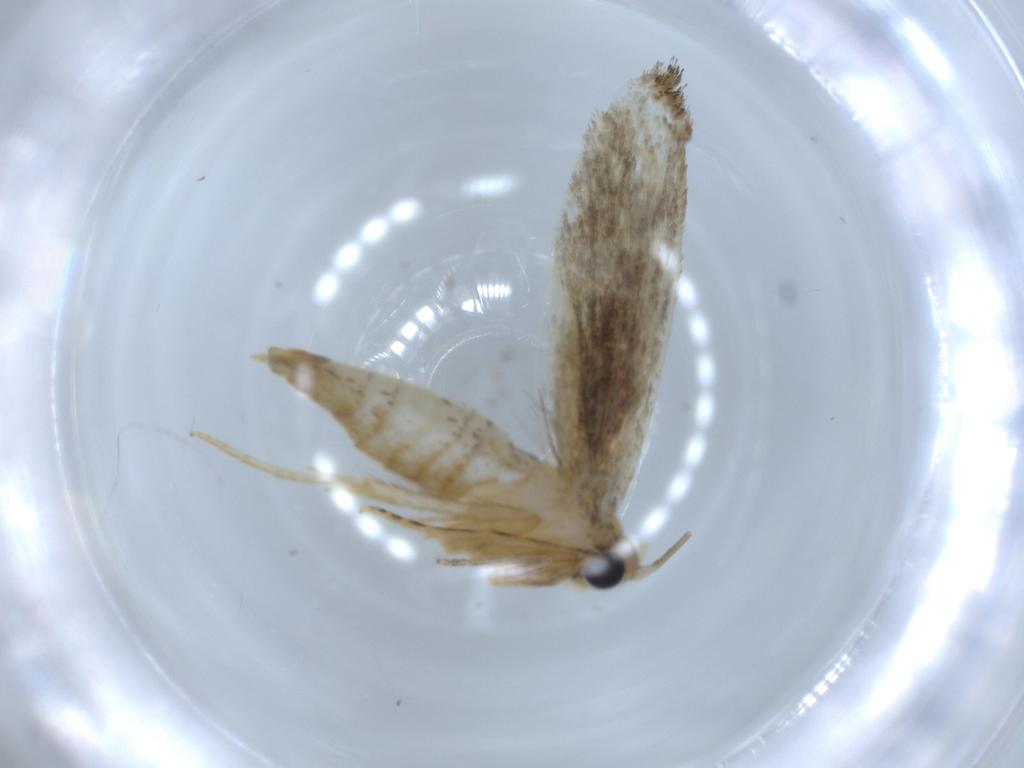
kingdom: Animalia
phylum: Arthropoda
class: Insecta
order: Lepidoptera
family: Tineidae
